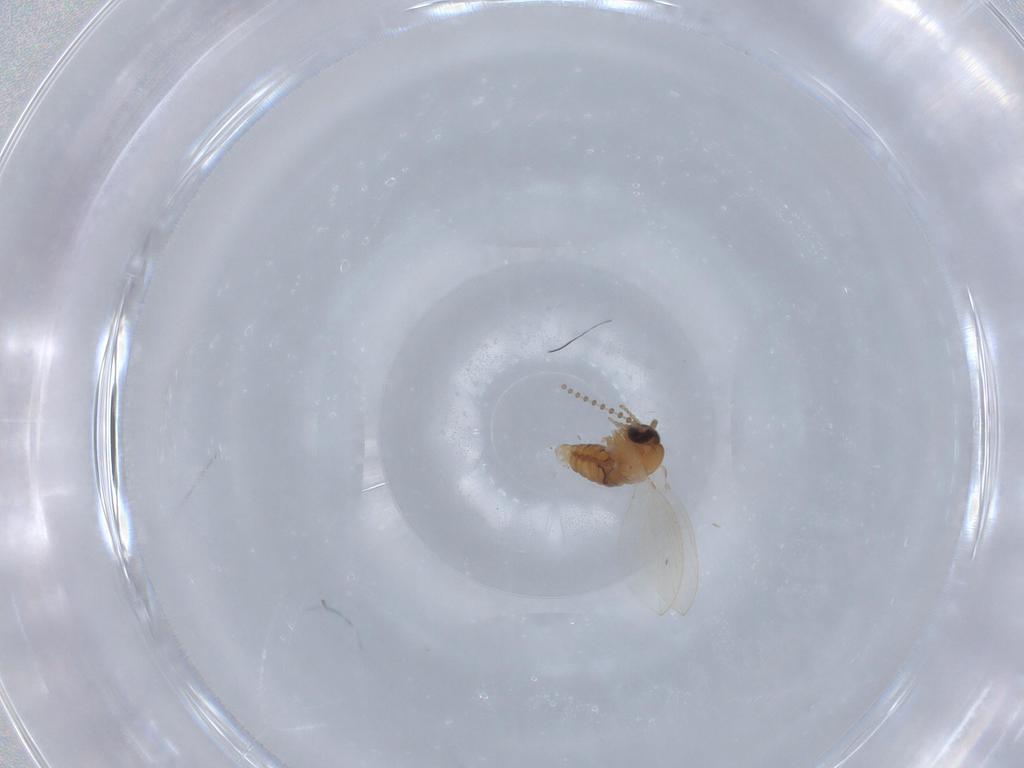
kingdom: Animalia
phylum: Arthropoda
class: Insecta
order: Diptera
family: Psychodidae
